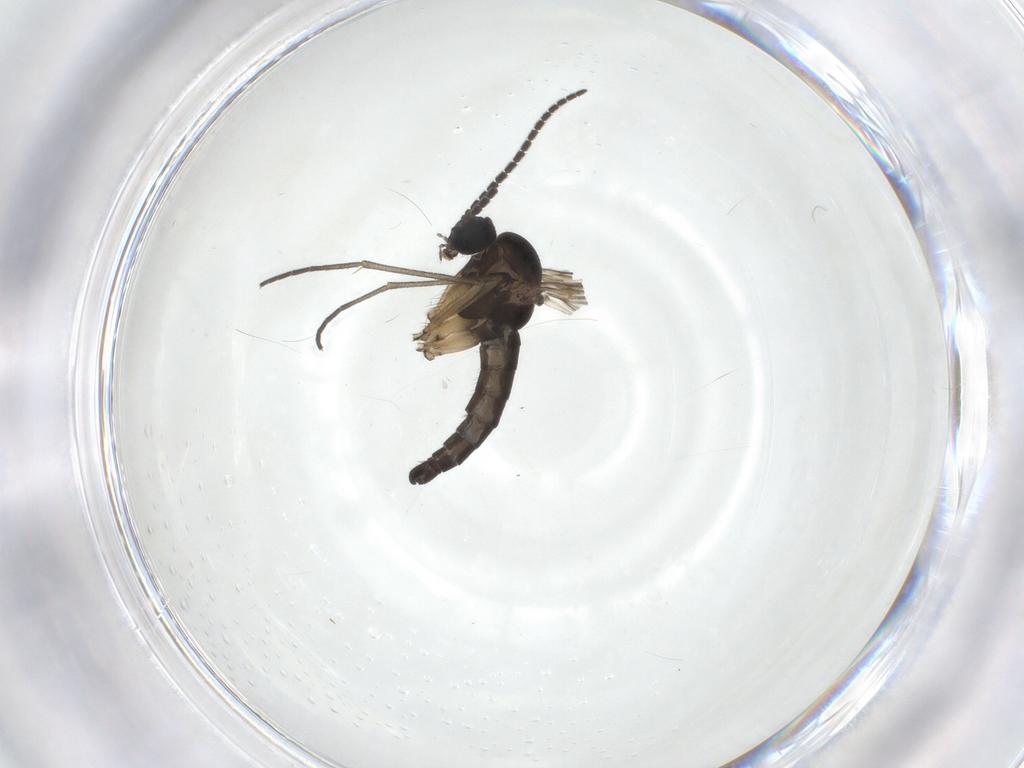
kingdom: Animalia
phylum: Arthropoda
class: Insecta
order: Diptera
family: Sciaridae
